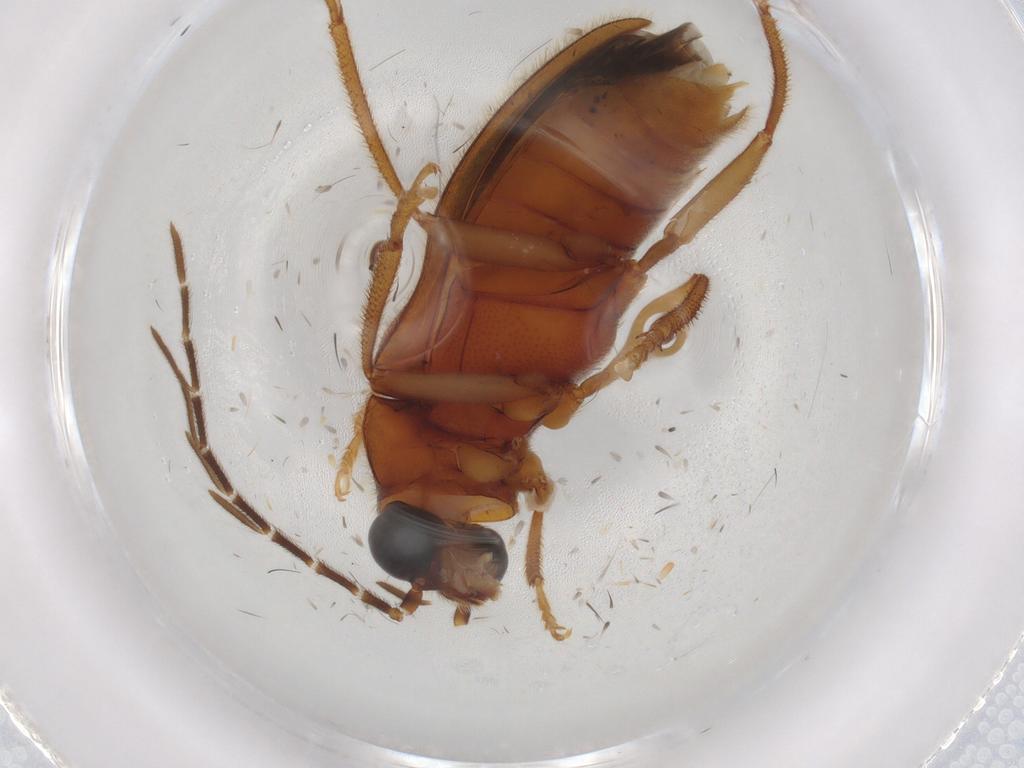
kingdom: Animalia
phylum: Arthropoda
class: Insecta
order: Coleoptera
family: Ptilodactylidae
